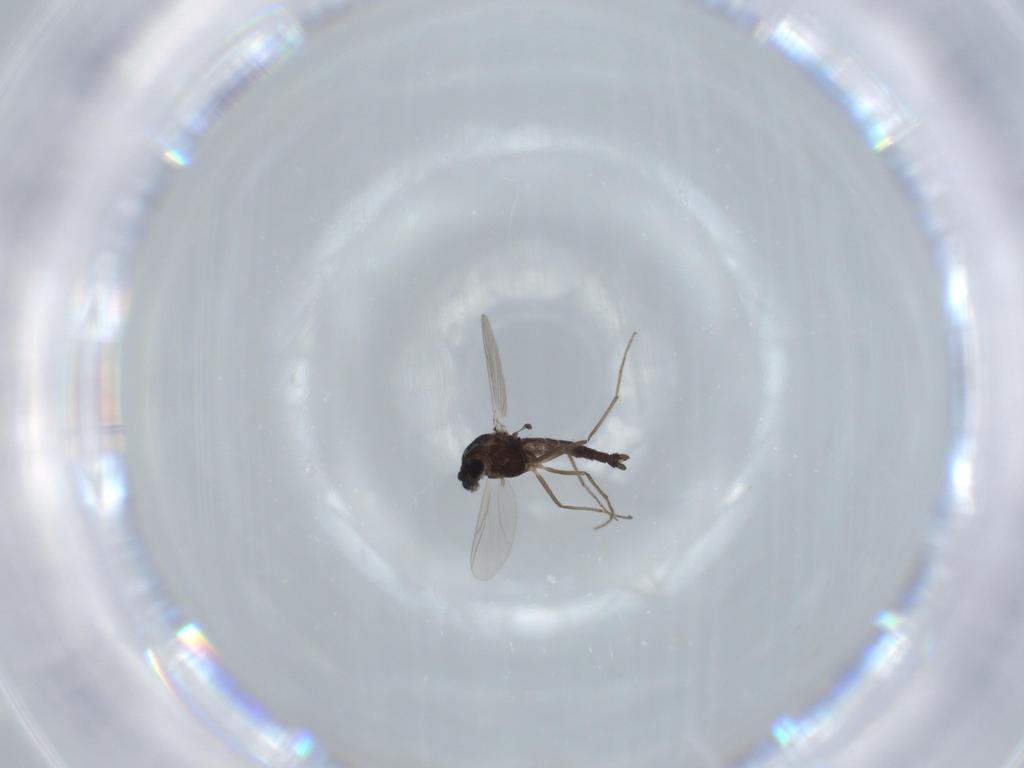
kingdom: Animalia
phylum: Arthropoda
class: Insecta
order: Diptera
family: Chironomidae
